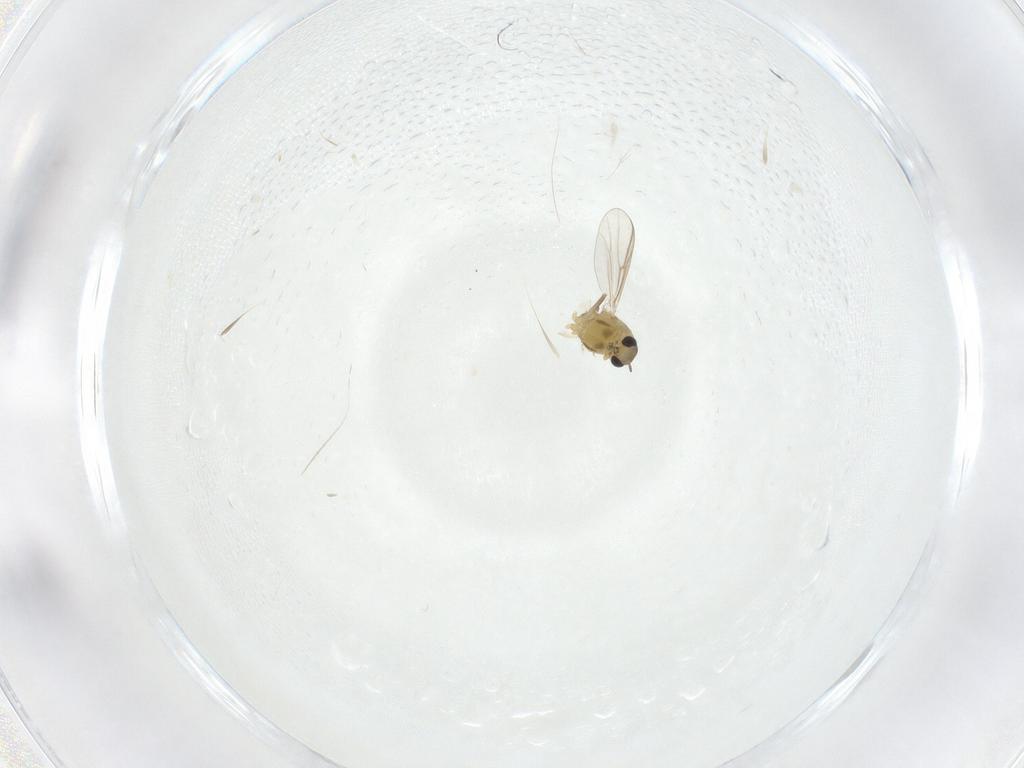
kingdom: Animalia
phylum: Arthropoda
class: Insecta
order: Diptera
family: Chironomidae
